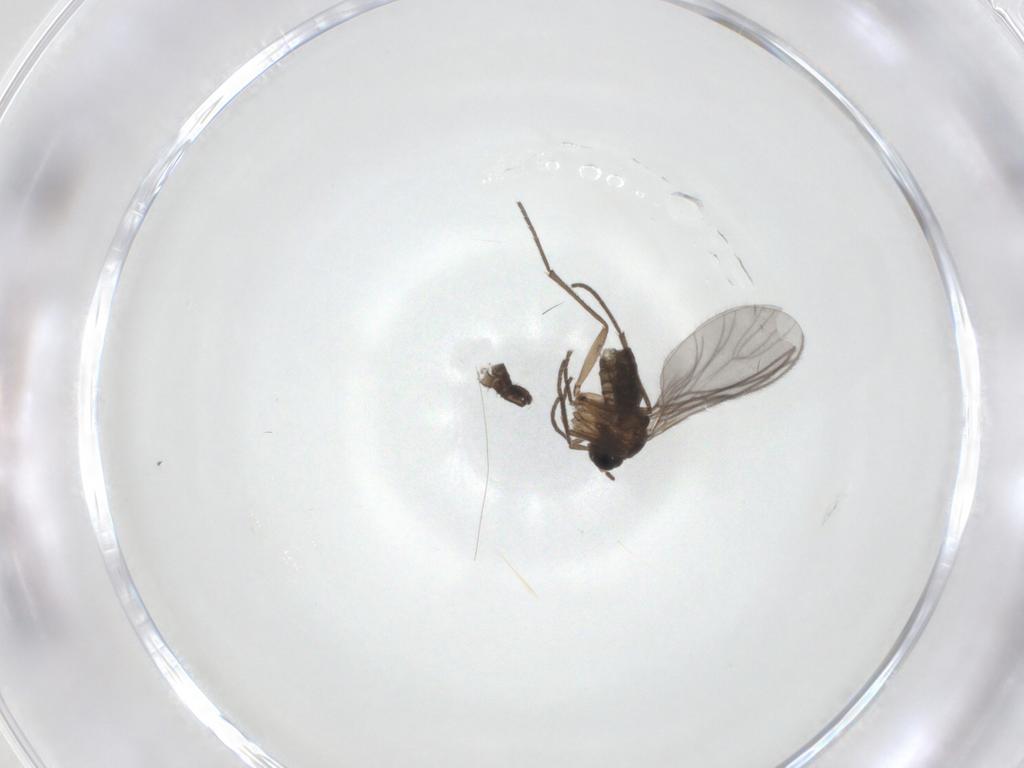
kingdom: Animalia
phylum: Arthropoda
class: Insecta
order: Diptera
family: Sciaridae
